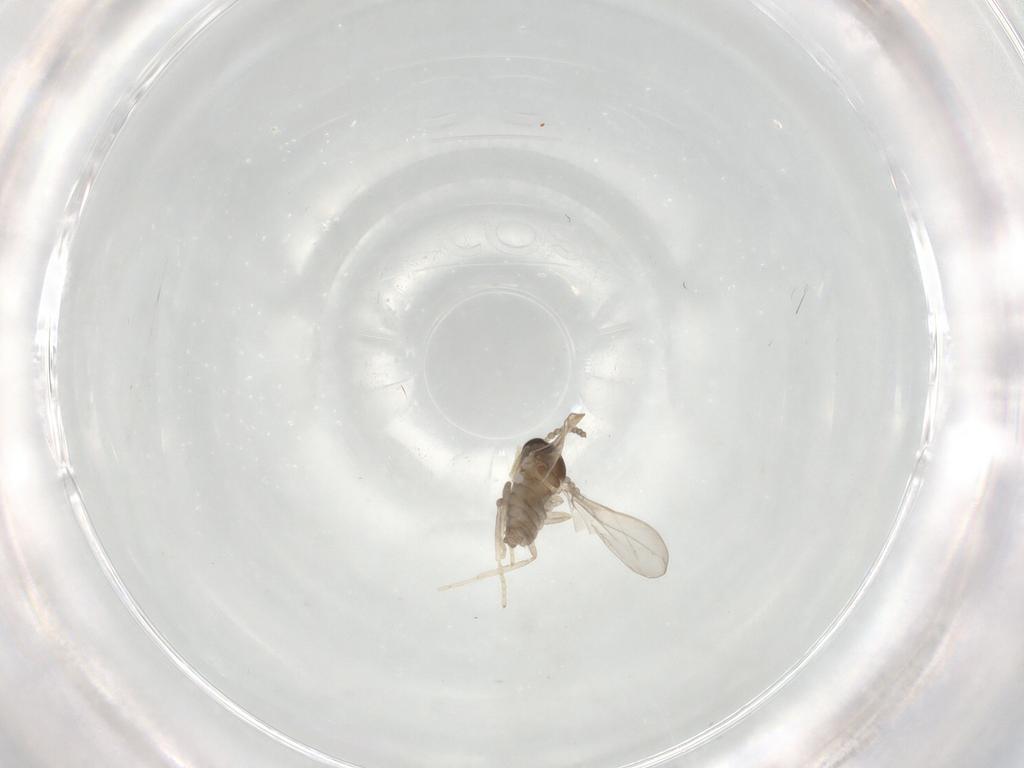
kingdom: Animalia
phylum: Arthropoda
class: Insecta
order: Diptera
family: Cecidomyiidae
